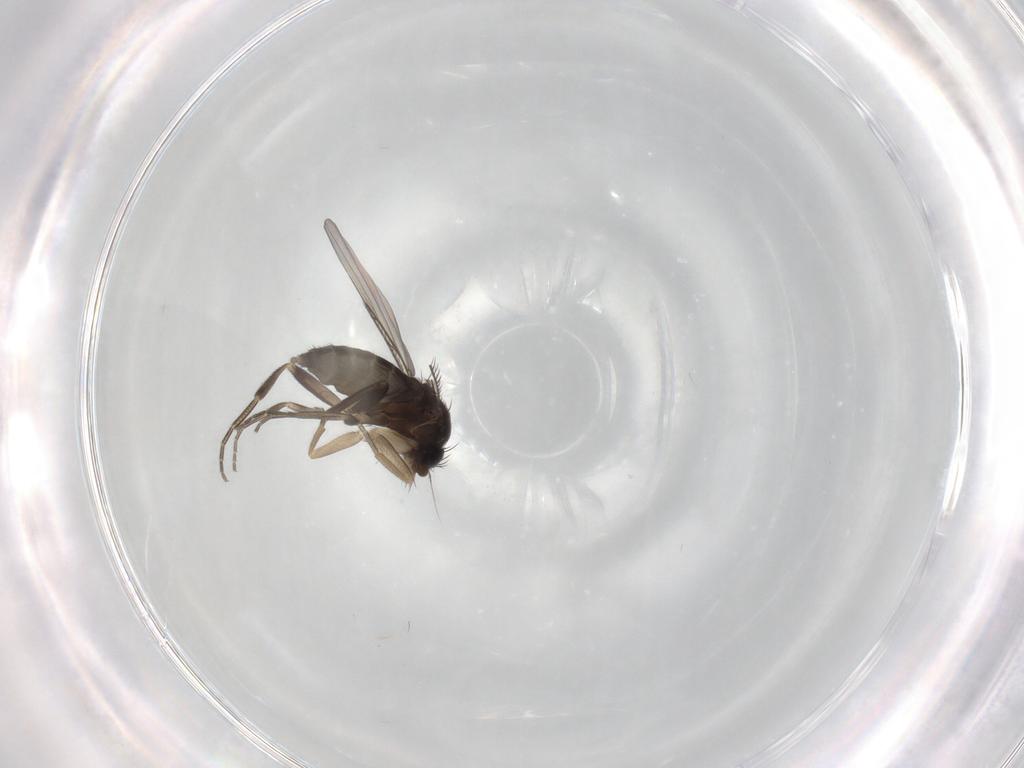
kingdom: Animalia
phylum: Arthropoda
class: Insecta
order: Diptera
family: Phoridae
